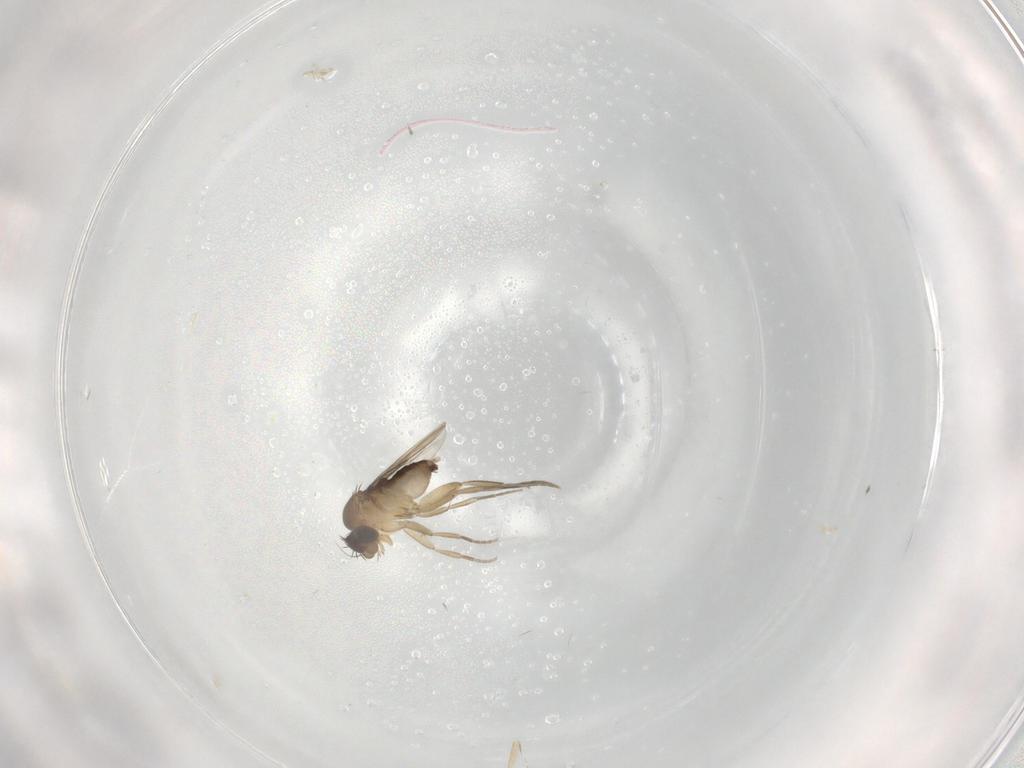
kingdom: Animalia
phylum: Arthropoda
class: Insecta
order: Diptera
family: Phoridae
